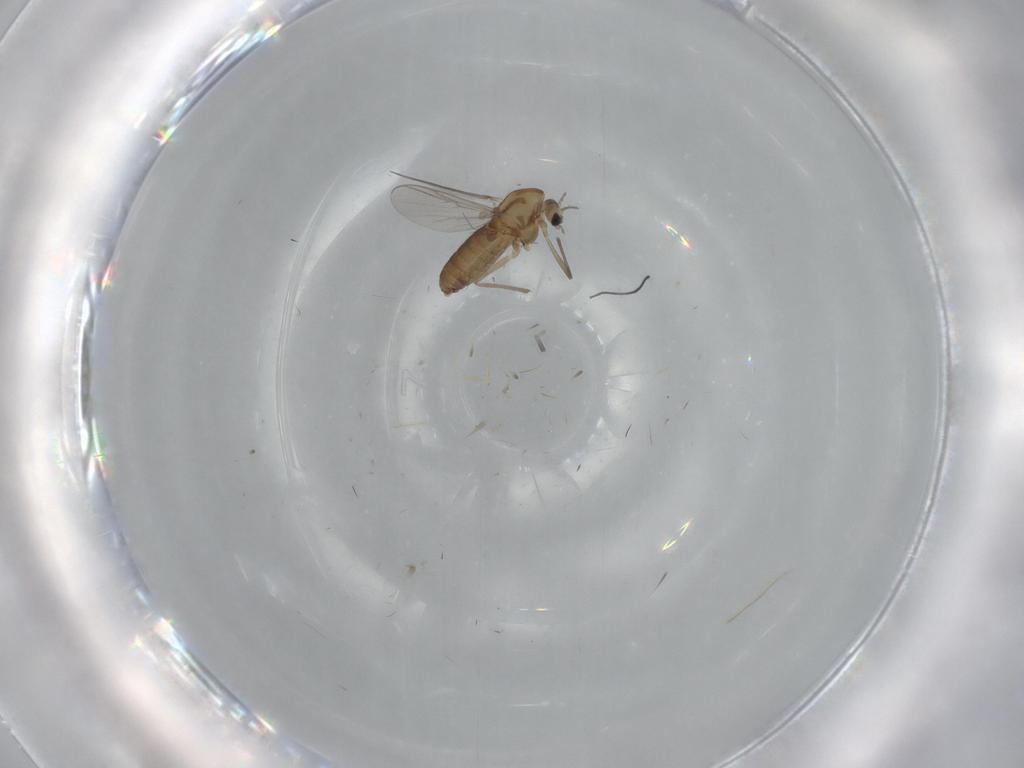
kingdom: Animalia
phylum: Arthropoda
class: Insecta
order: Diptera
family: Chironomidae
